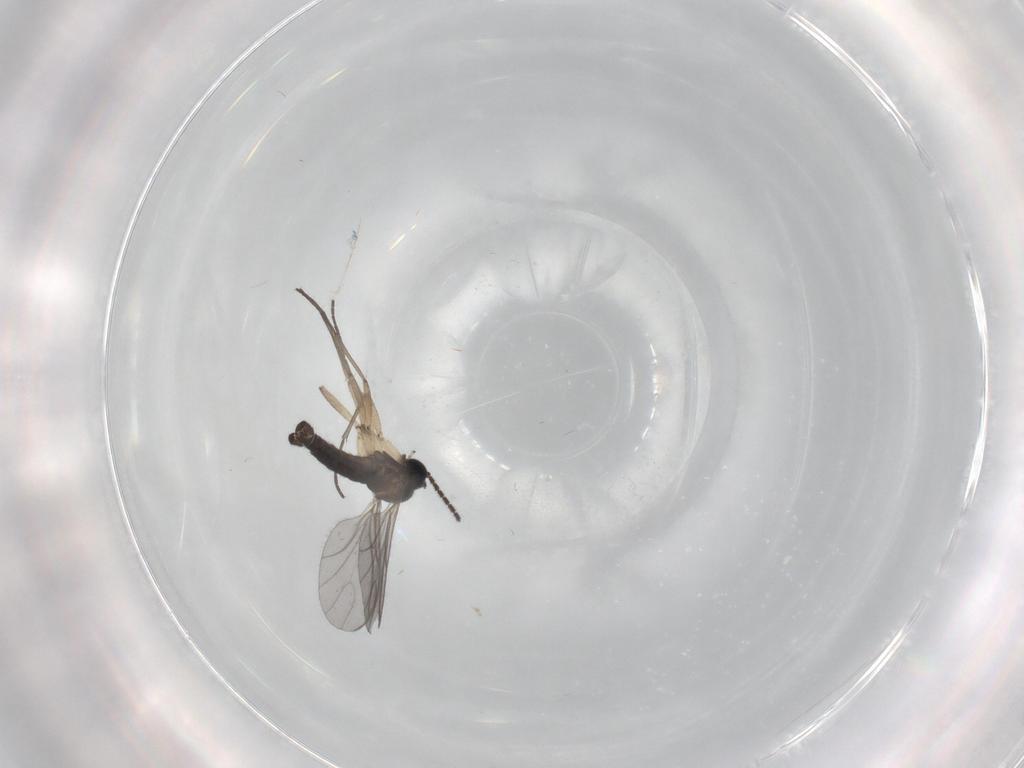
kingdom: Animalia
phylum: Arthropoda
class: Insecta
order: Diptera
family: Sciaridae
